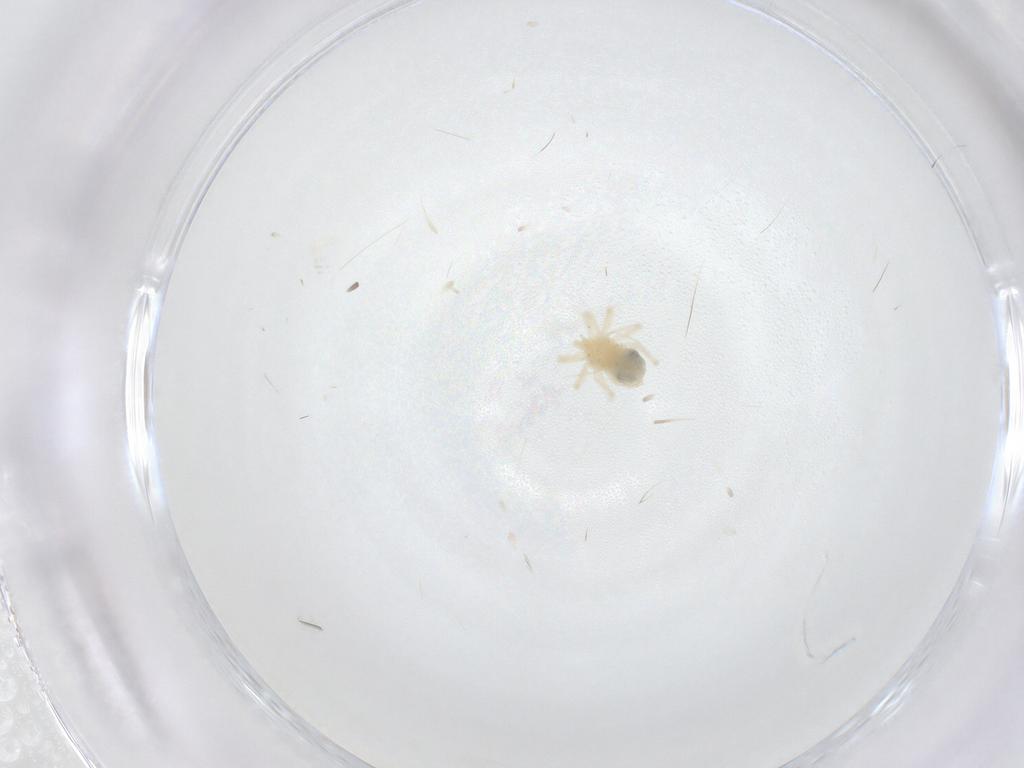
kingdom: Animalia
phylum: Arthropoda
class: Arachnida
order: Trombidiformes
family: Anystidae
